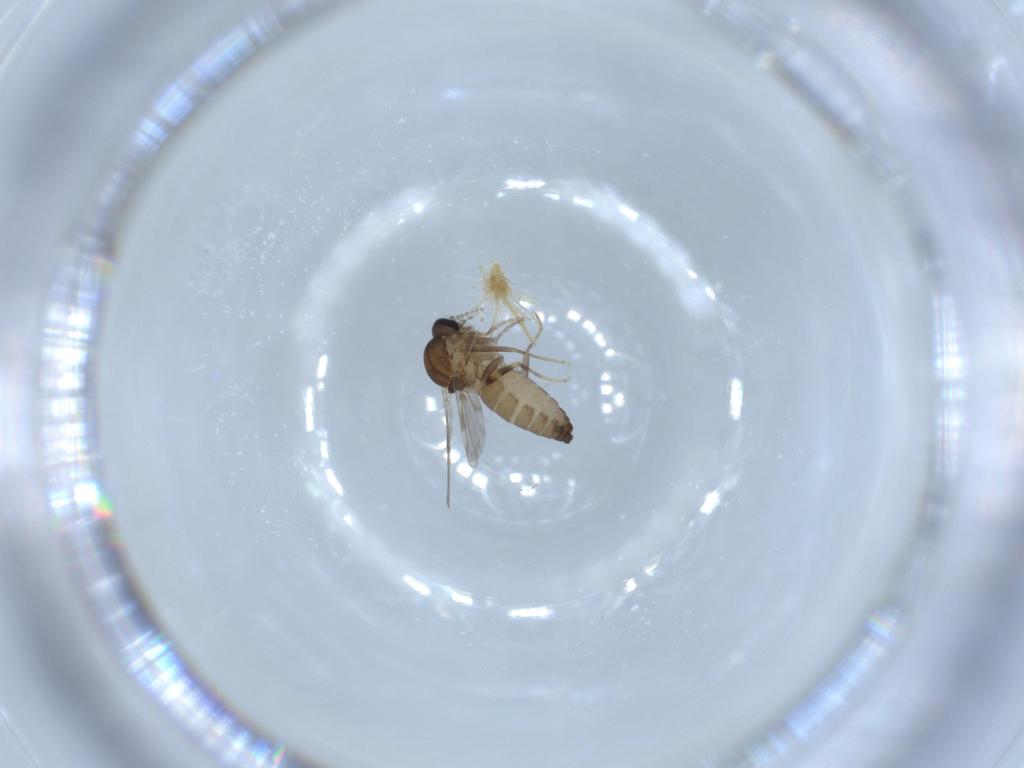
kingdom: Animalia
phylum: Arthropoda
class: Insecta
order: Diptera
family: Ceratopogonidae
